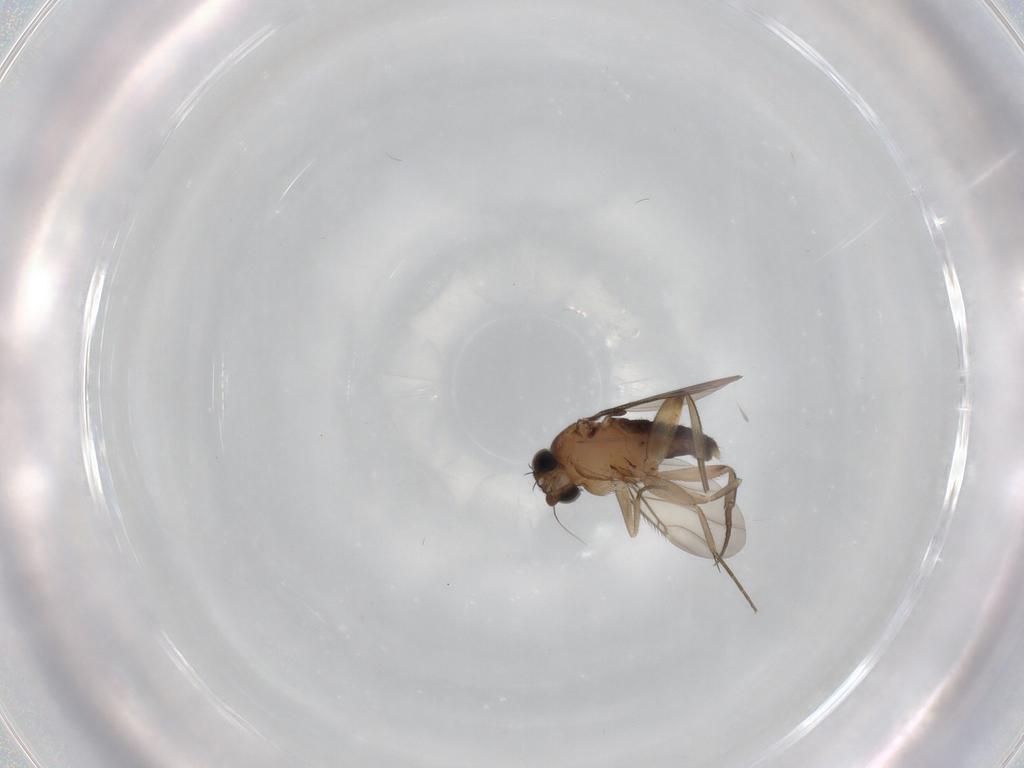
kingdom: Animalia
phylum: Arthropoda
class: Insecta
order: Diptera
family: Phoridae
